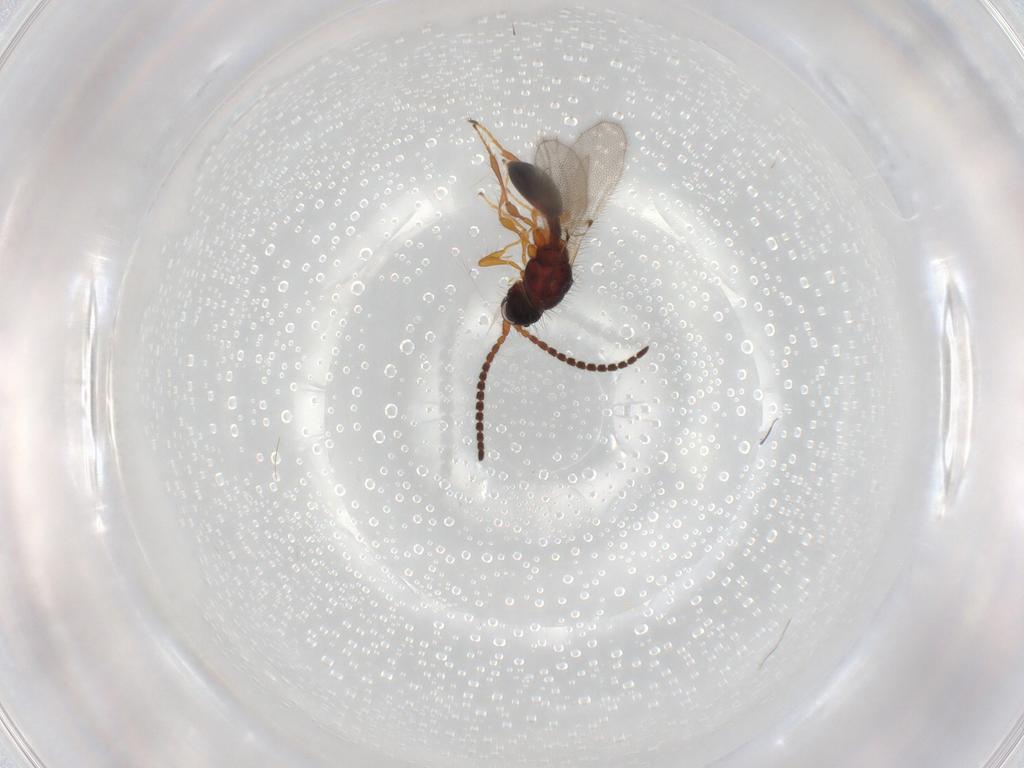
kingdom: Animalia
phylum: Arthropoda
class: Insecta
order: Hymenoptera
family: Diapriidae
